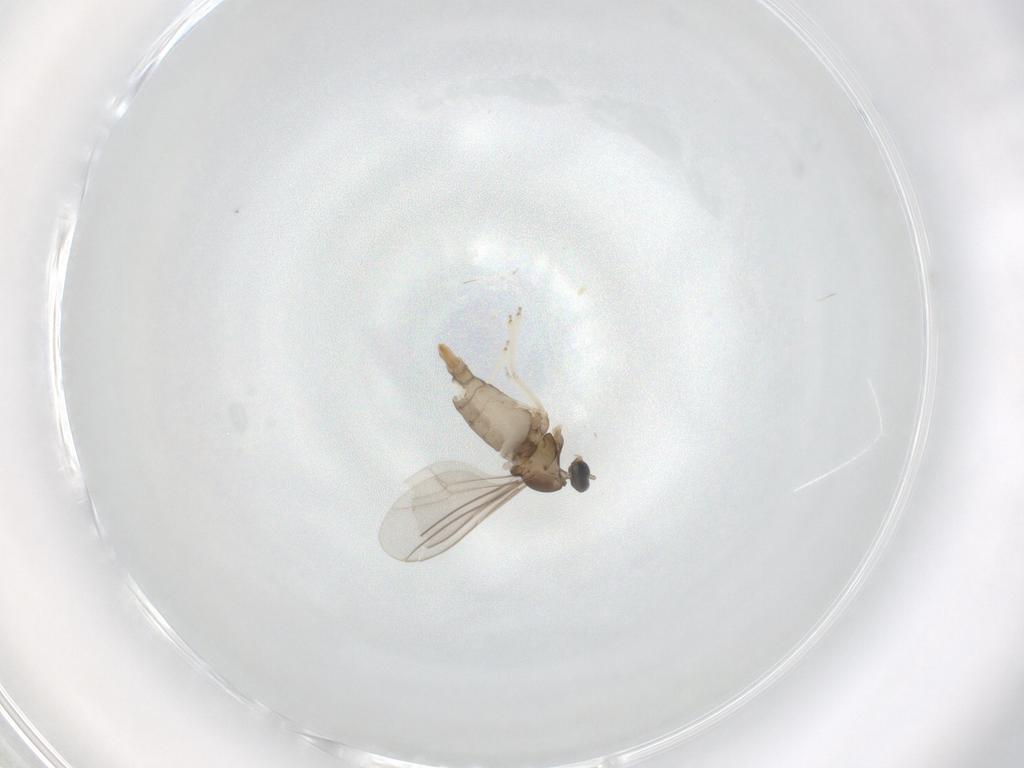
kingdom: Animalia
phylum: Arthropoda
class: Insecta
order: Diptera
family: Cecidomyiidae
